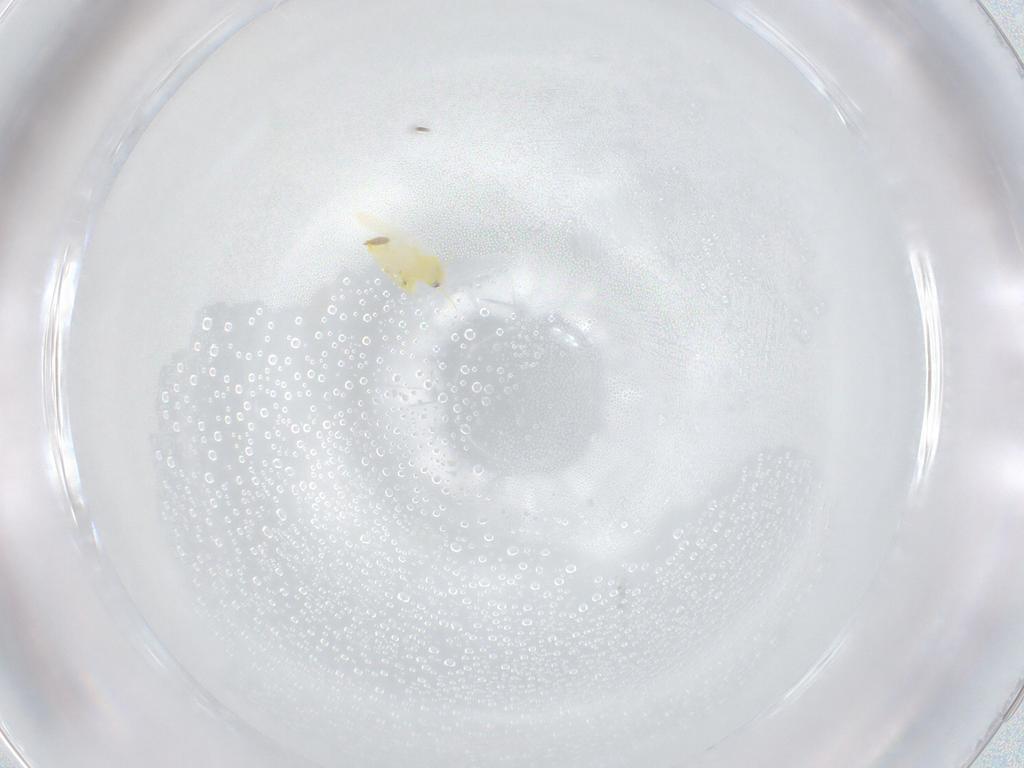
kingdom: Animalia
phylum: Arthropoda
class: Insecta
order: Hemiptera
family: Aleyrodidae
